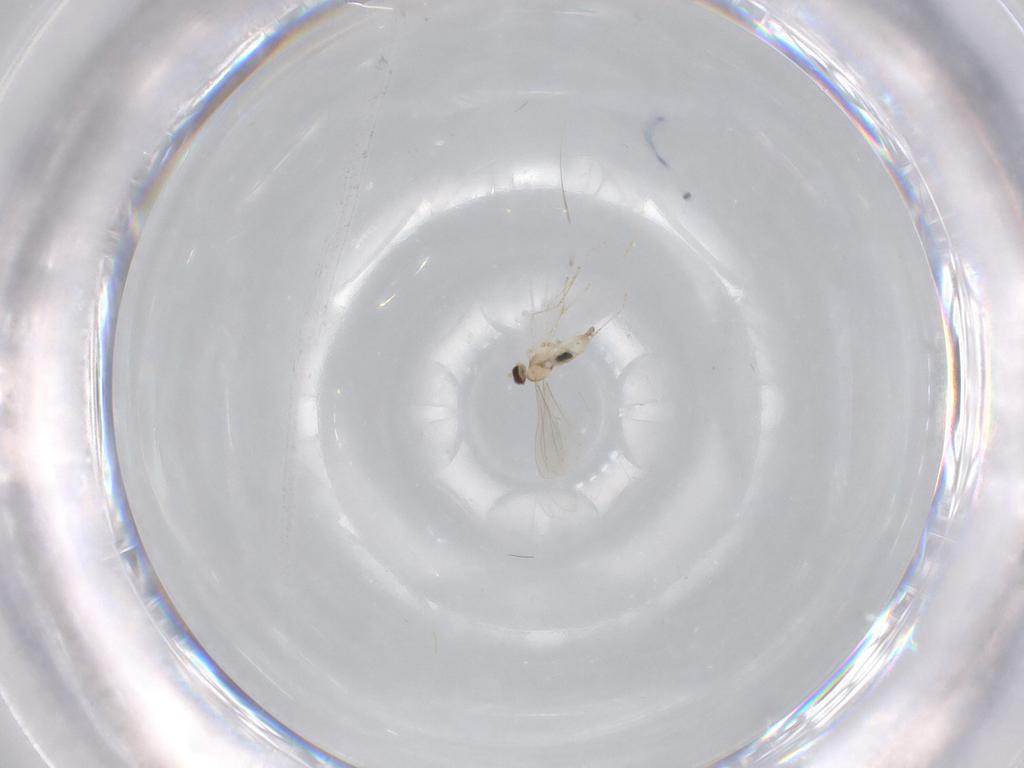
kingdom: Animalia
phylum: Arthropoda
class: Insecta
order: Diptera
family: Cecidomyiidae
